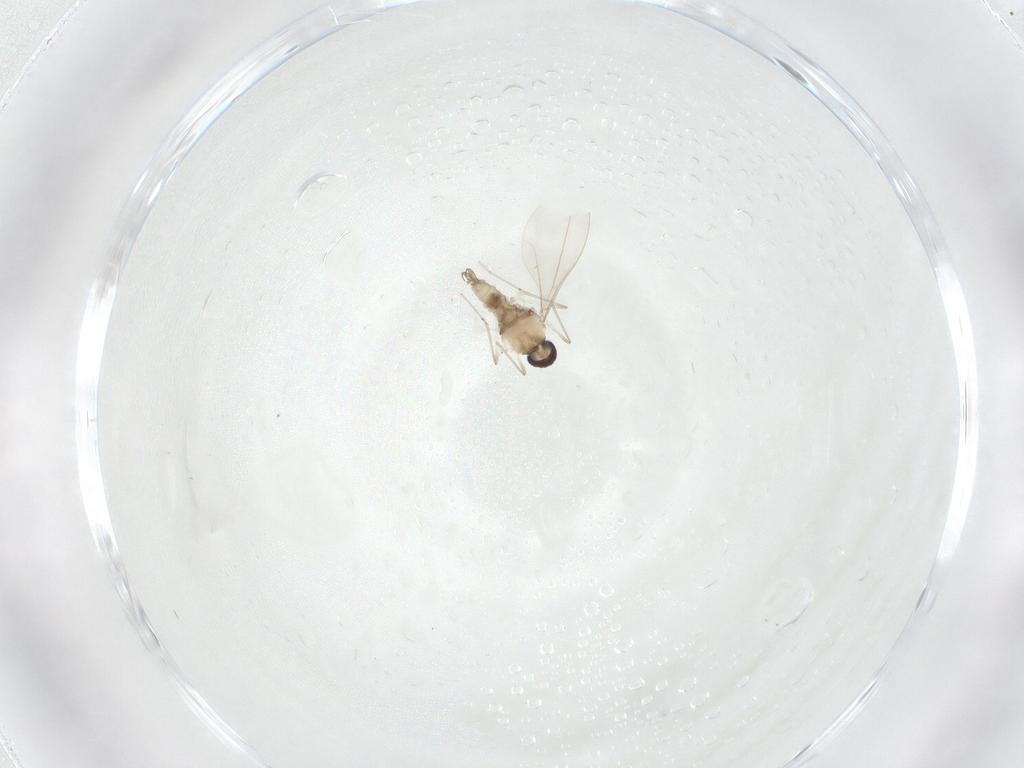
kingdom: Animalia
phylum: Arthropoda
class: Insecta
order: Diptera
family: Cecidomyiidae
